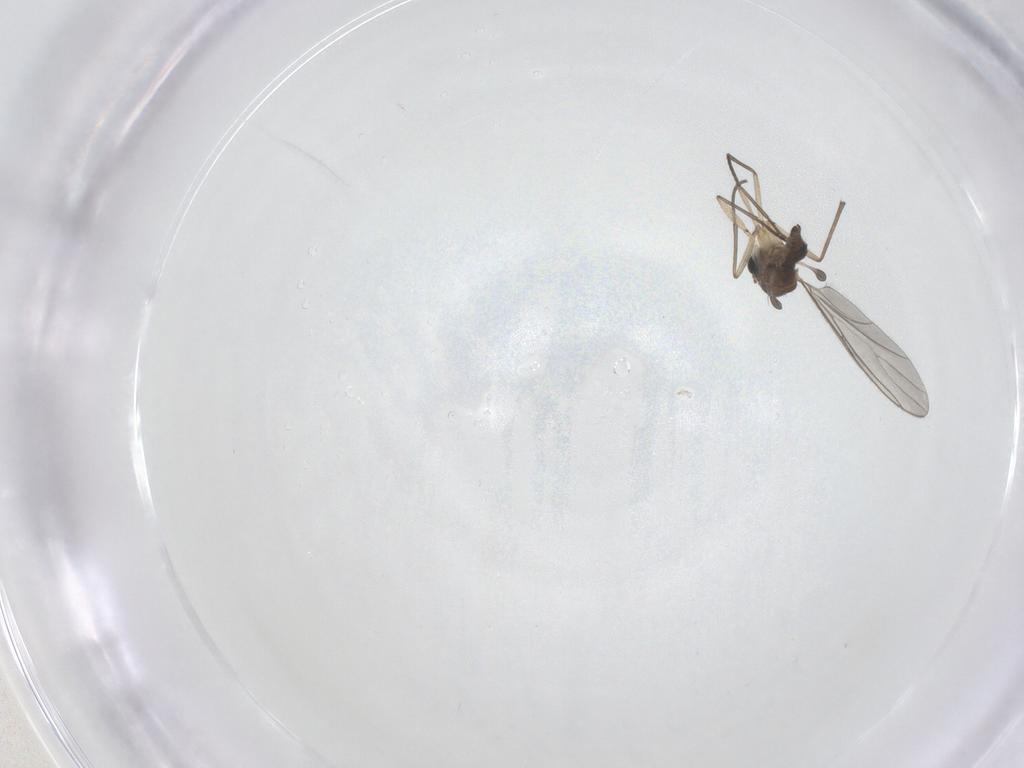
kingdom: Animalia
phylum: Arthropoda
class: Insecta
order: Diptera
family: Sciaridae
